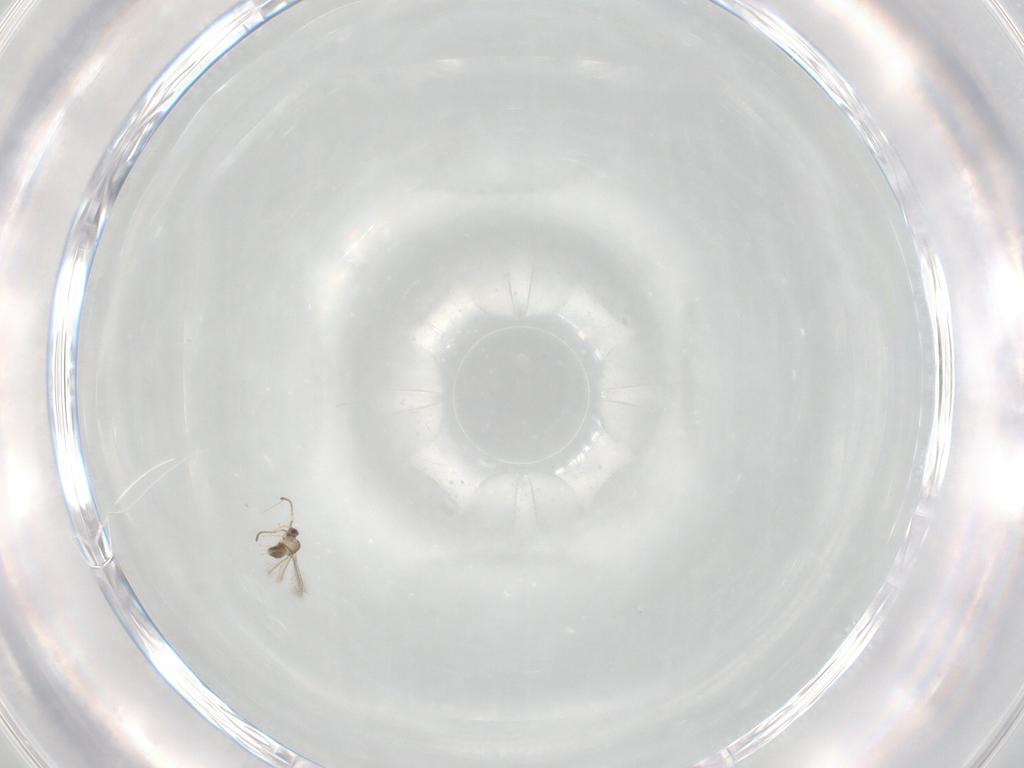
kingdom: Animalia
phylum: Arthropoda
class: Insecta
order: Hymenoptera
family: Mymaridae
